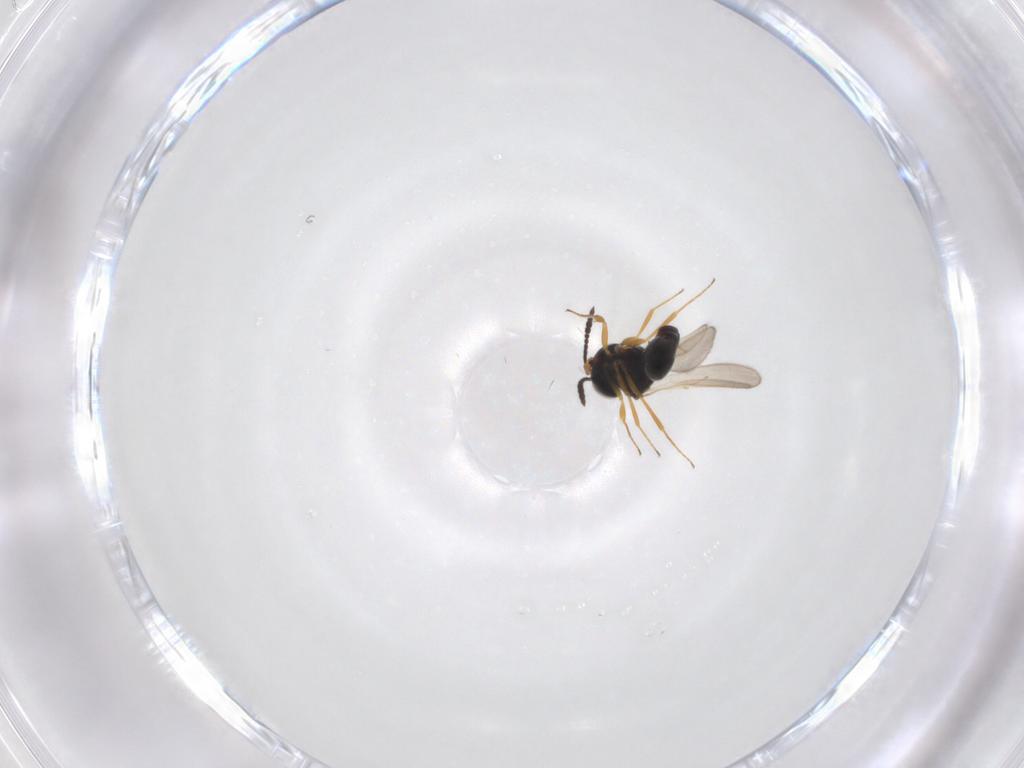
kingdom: Animalia
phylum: Arthropoda
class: Insecta
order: Hymenoptera
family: Scelionidae
